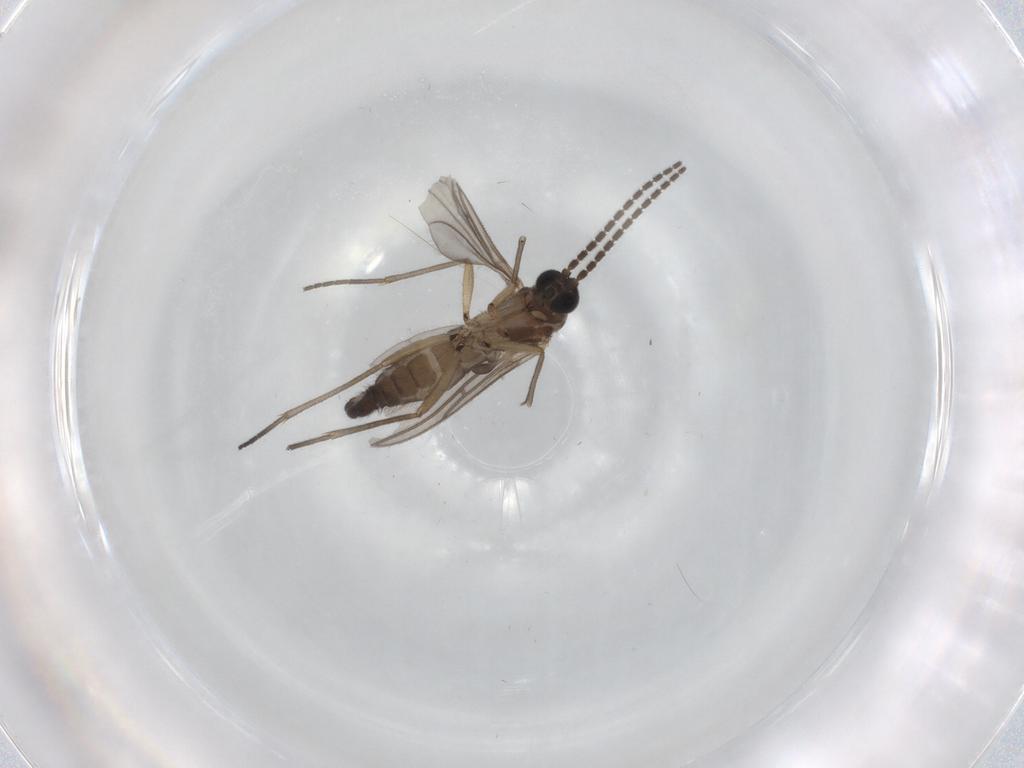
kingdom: Animalia
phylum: Arthropoda
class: Insecta
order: Diptera
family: Sciaridae
